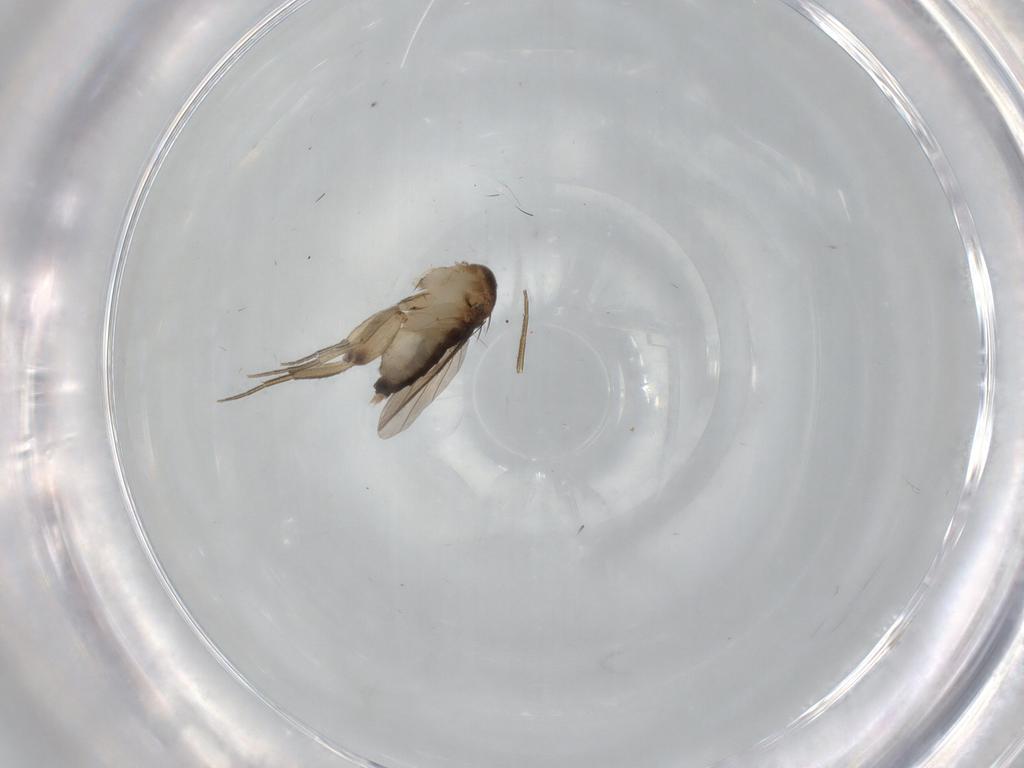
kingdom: Animalia
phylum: Arthropoda
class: Insecta
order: Diptera
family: Phoridae
